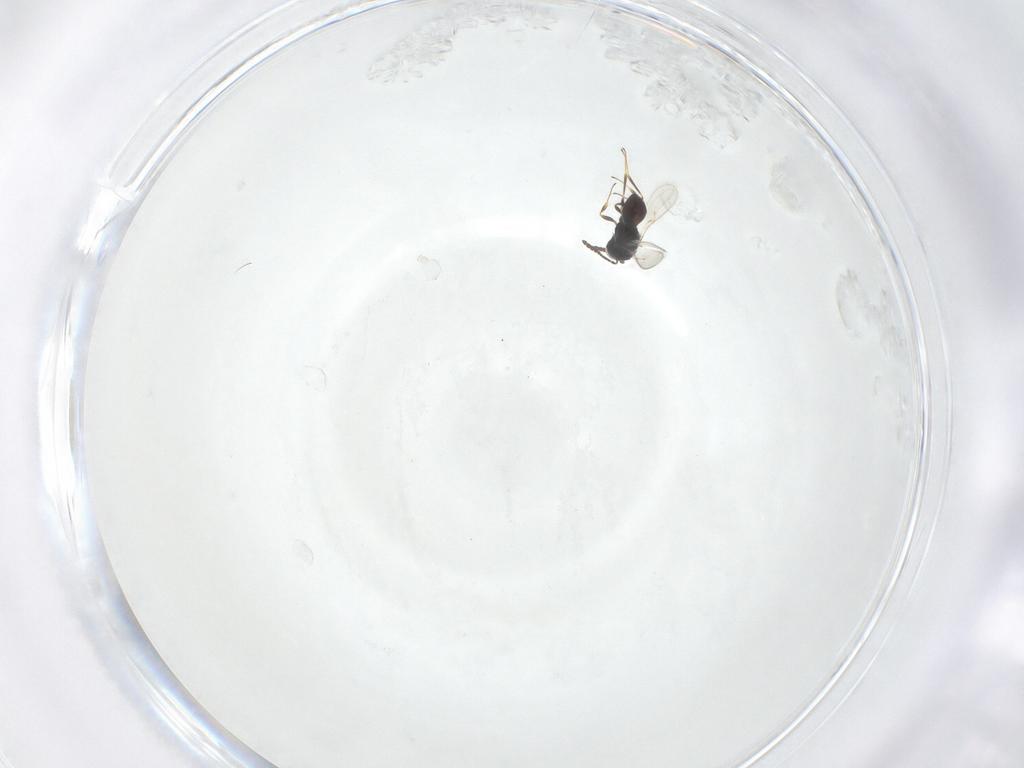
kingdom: Animalia
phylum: Arthropoda
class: Insecta
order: Hymenoptera
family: Scelionidae
